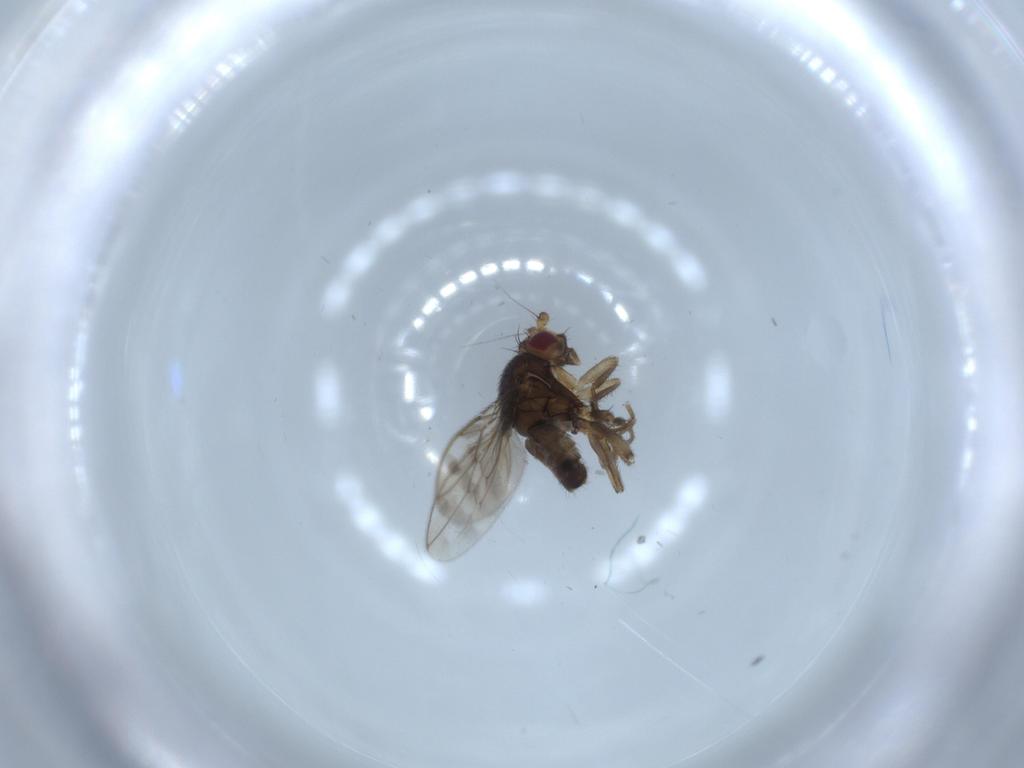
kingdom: Animalia
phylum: Arthropoda
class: Insecta
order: Diptera
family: Sphaeroceridae
